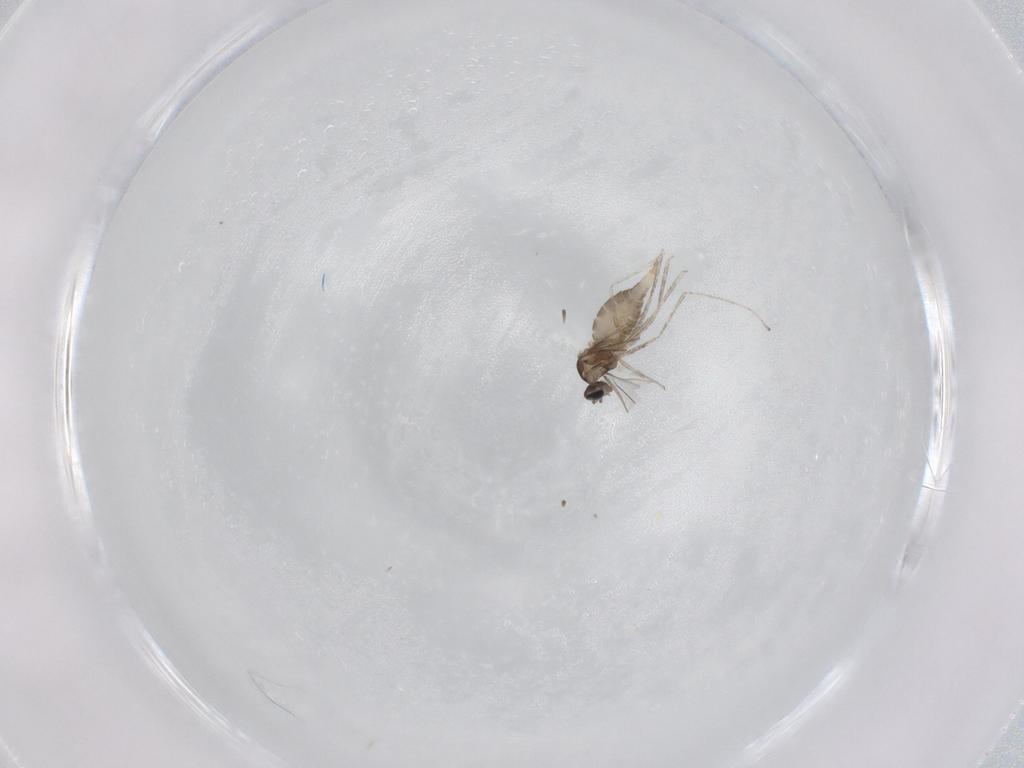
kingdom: Animalia
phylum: Arthropoda
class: Insecta
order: Diptera
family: Cecidomyiidae
